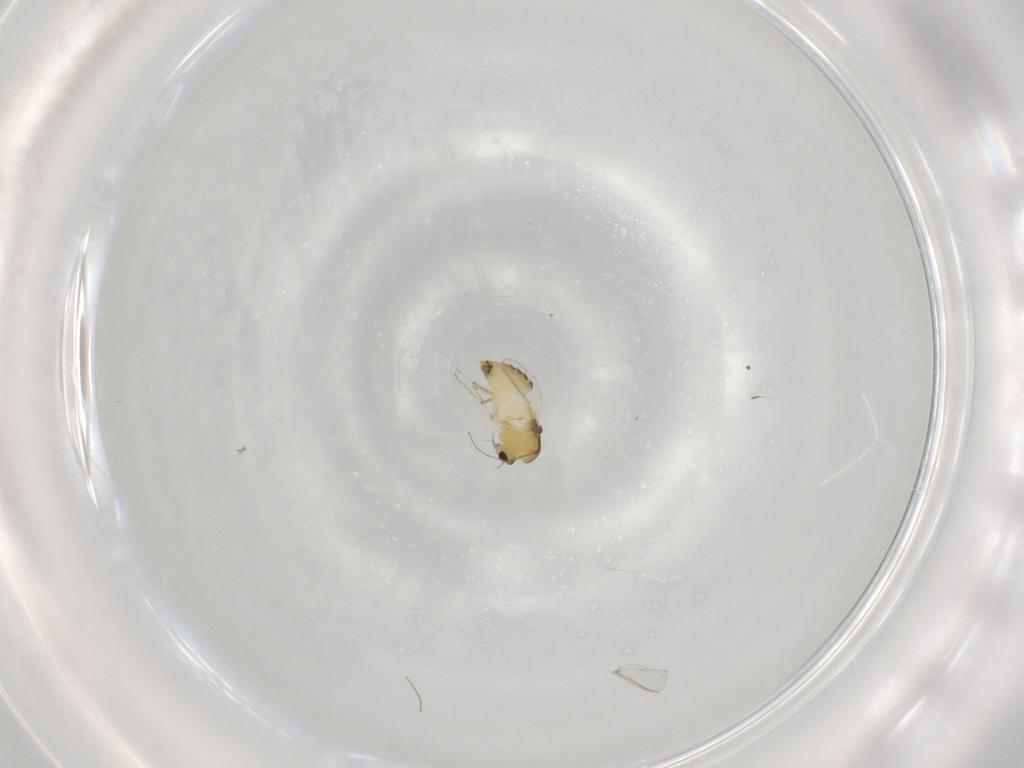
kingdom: Animalia
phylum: Arthropoda
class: Insecta
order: Diptera
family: Chironomidae
